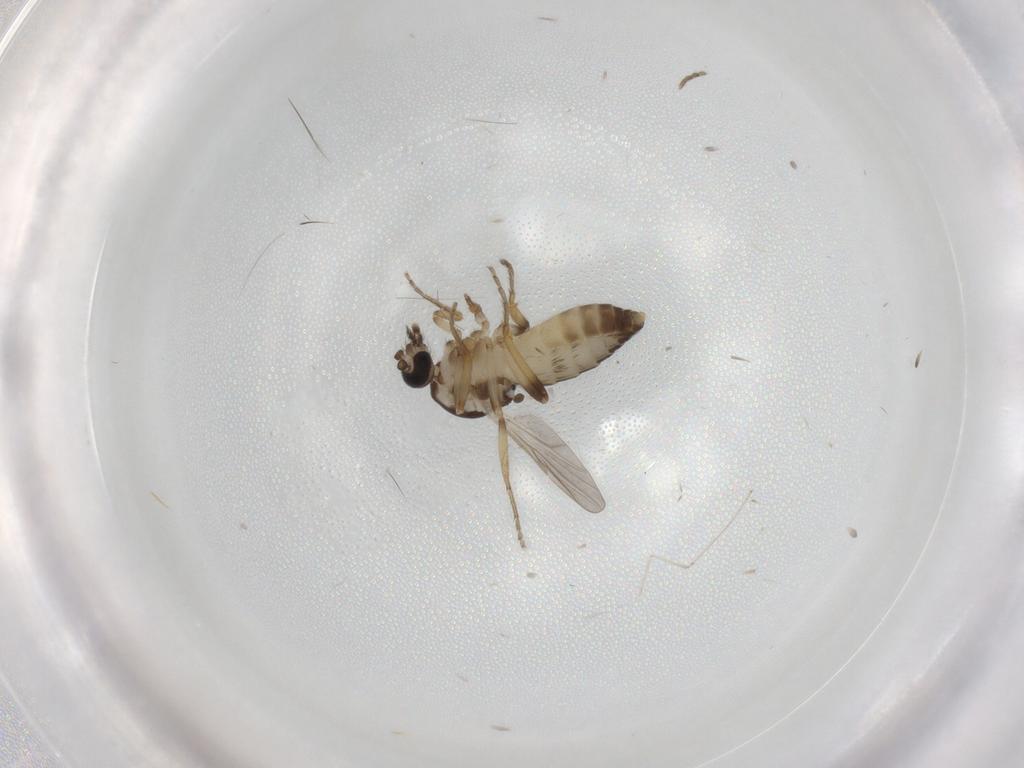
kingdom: Animalia
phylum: Arthropoda
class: Insecta
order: Diptera
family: Ceratopogonidae
